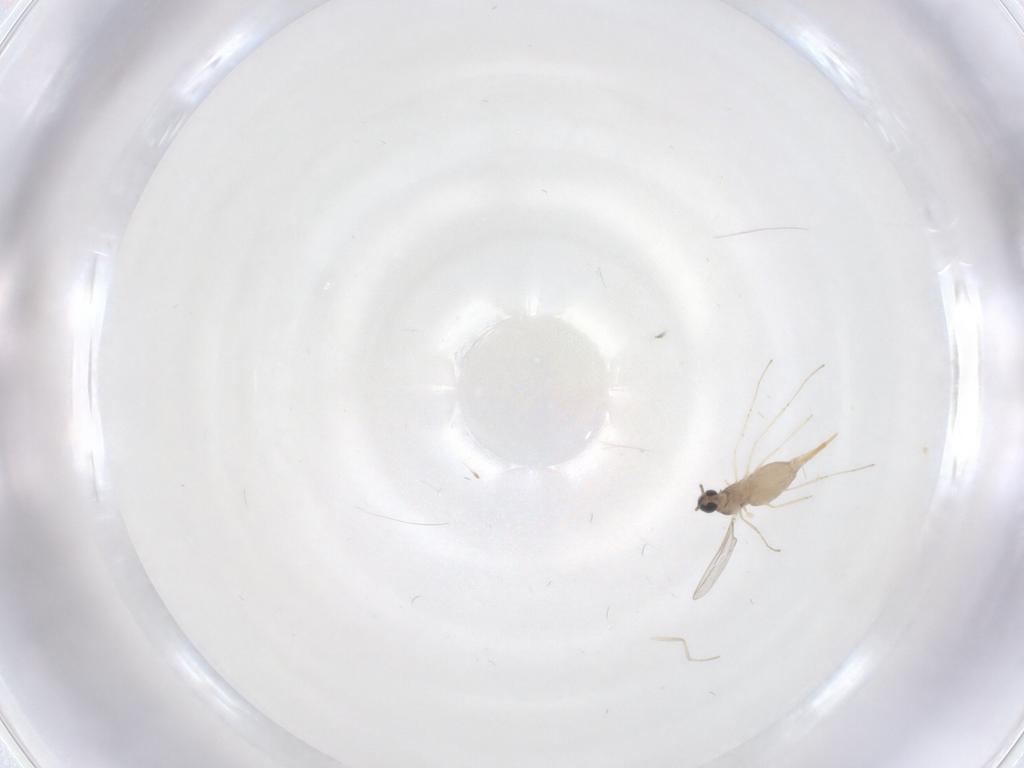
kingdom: Animalia
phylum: Arthropoda
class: Insecta
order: Diptera
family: Cecidomyiidae
